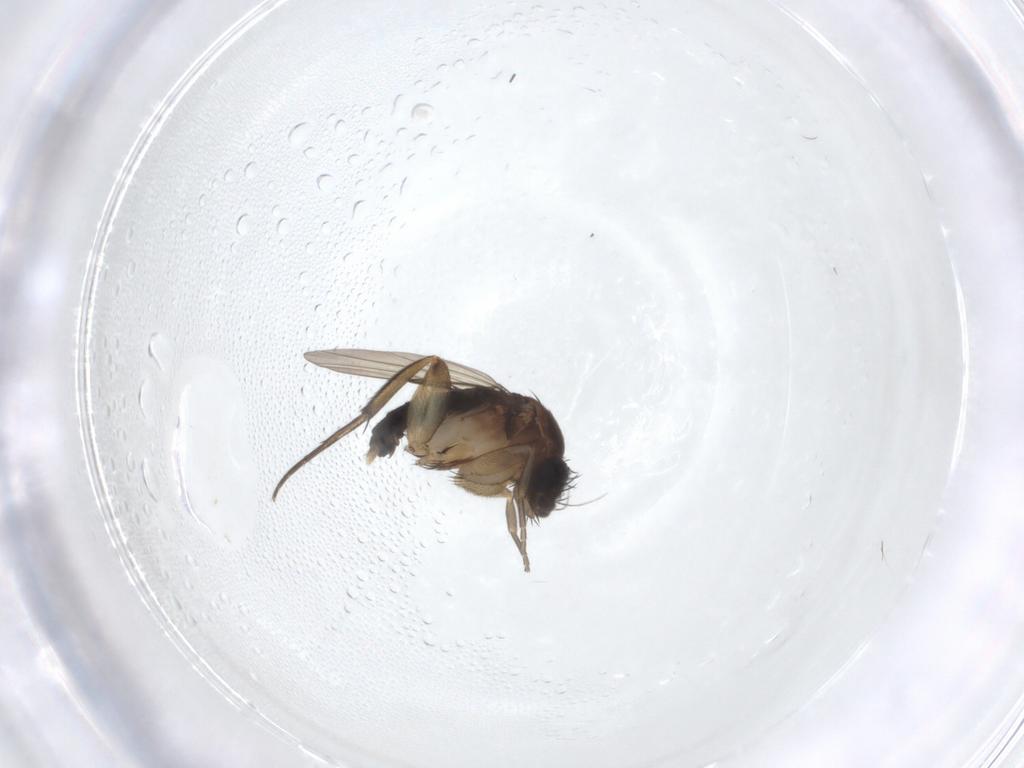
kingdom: Animalia
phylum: Arthropoda
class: Insecta
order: Diptera
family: Phoridae
